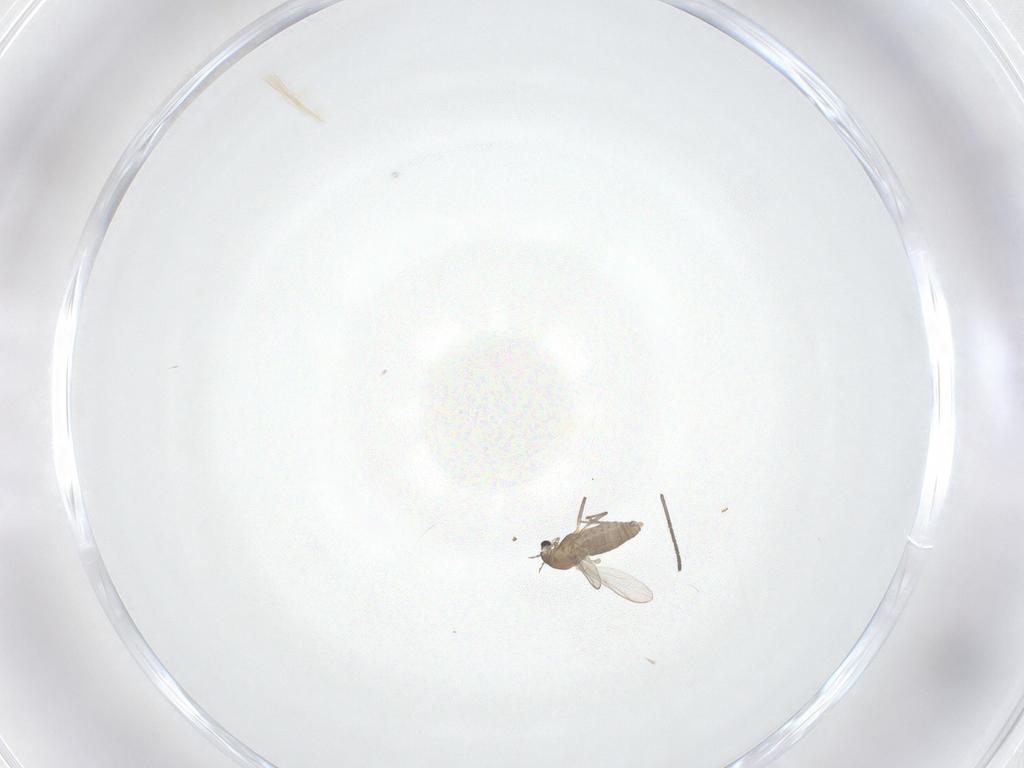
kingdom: Animalia
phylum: Arthropoda
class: Insecta
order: Diptera
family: Chironomidae
